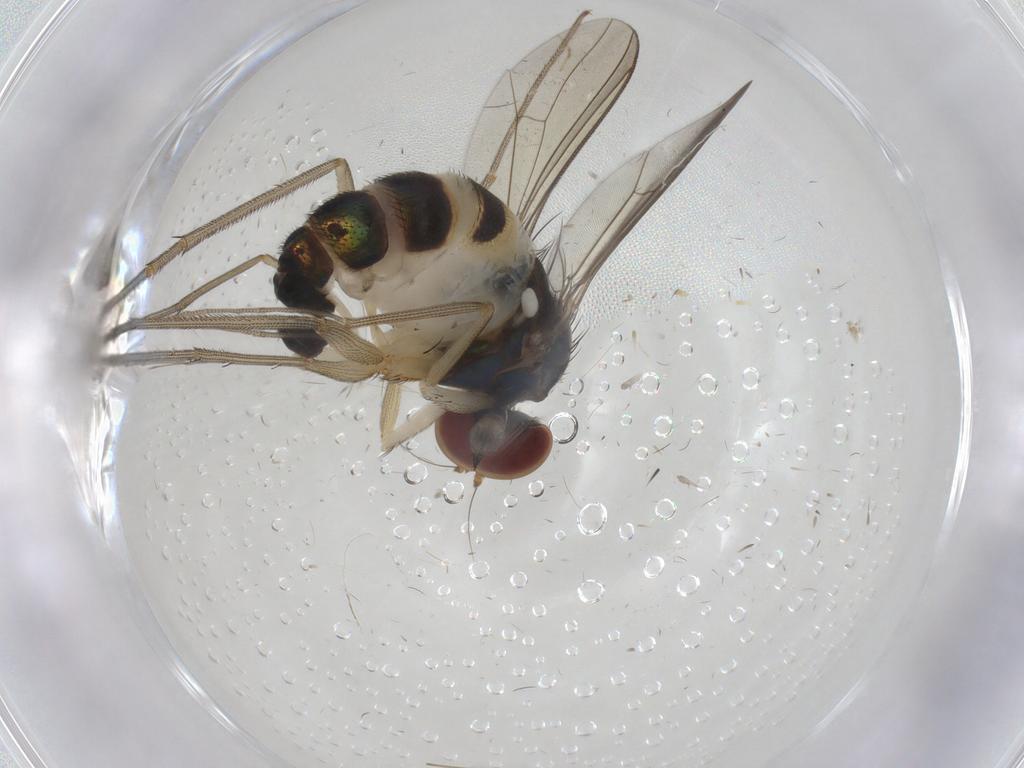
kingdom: Animalia
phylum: Arthropoda
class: Insecta
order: Diptera
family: Dolichopodidae
